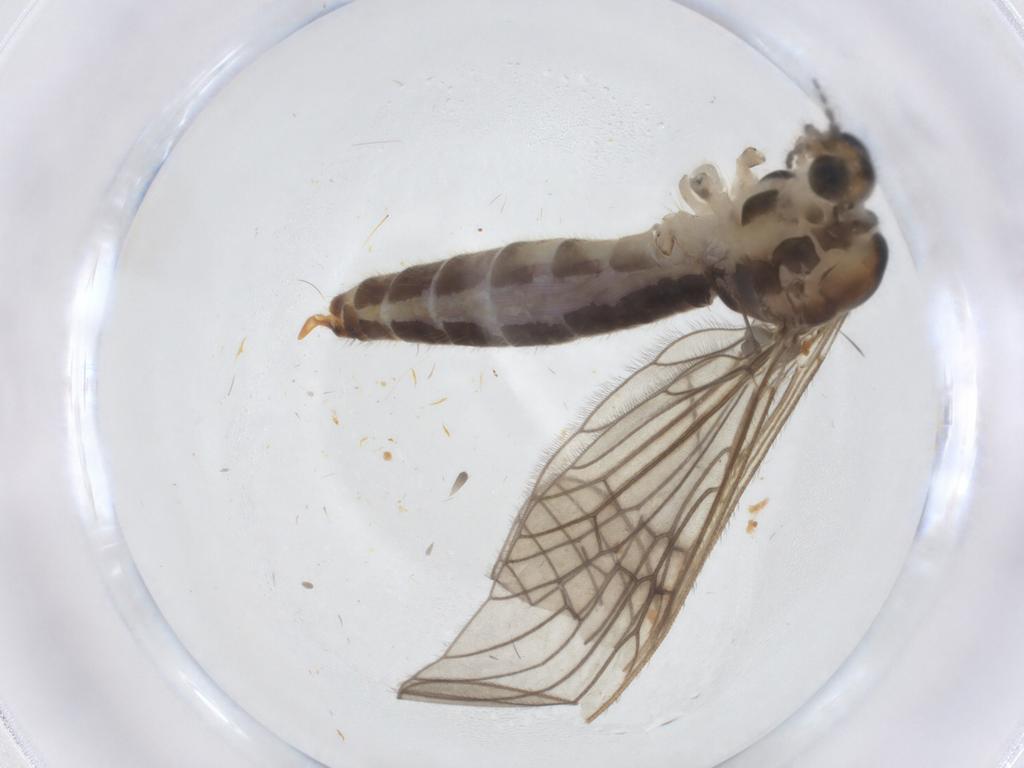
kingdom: Animalia
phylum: Arthropoda
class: Insecta
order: Diptera
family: Limoniidae
